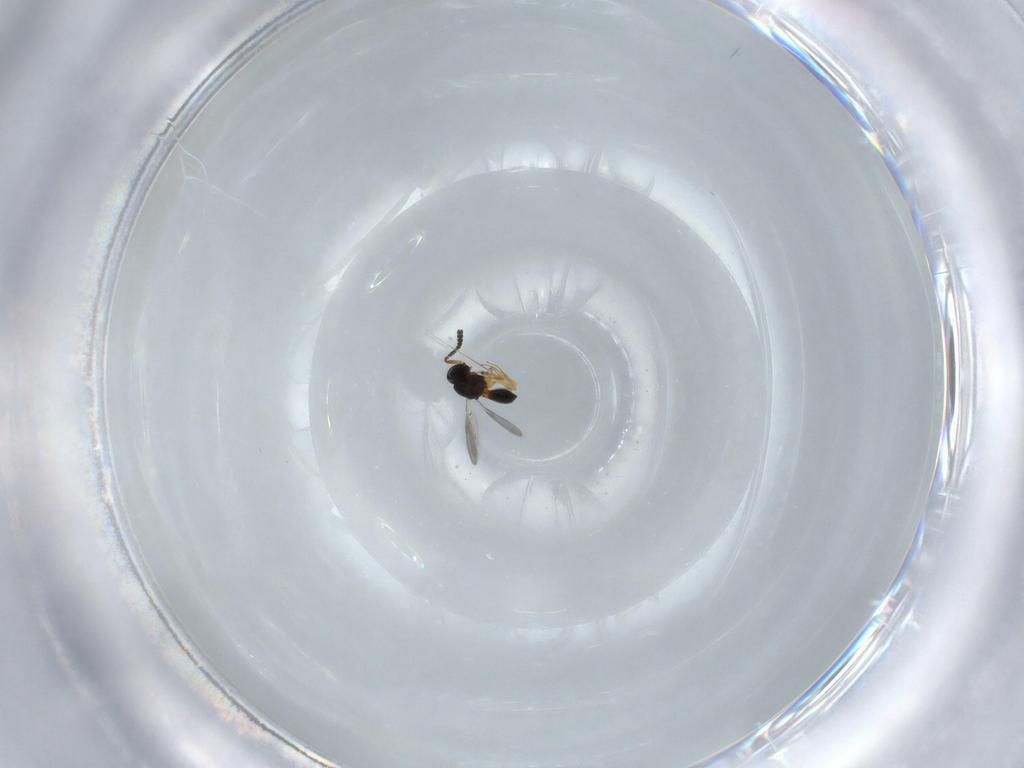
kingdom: Animalia
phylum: Arthropoda
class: Insecta
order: Hymenoptera
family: Scelionidae
